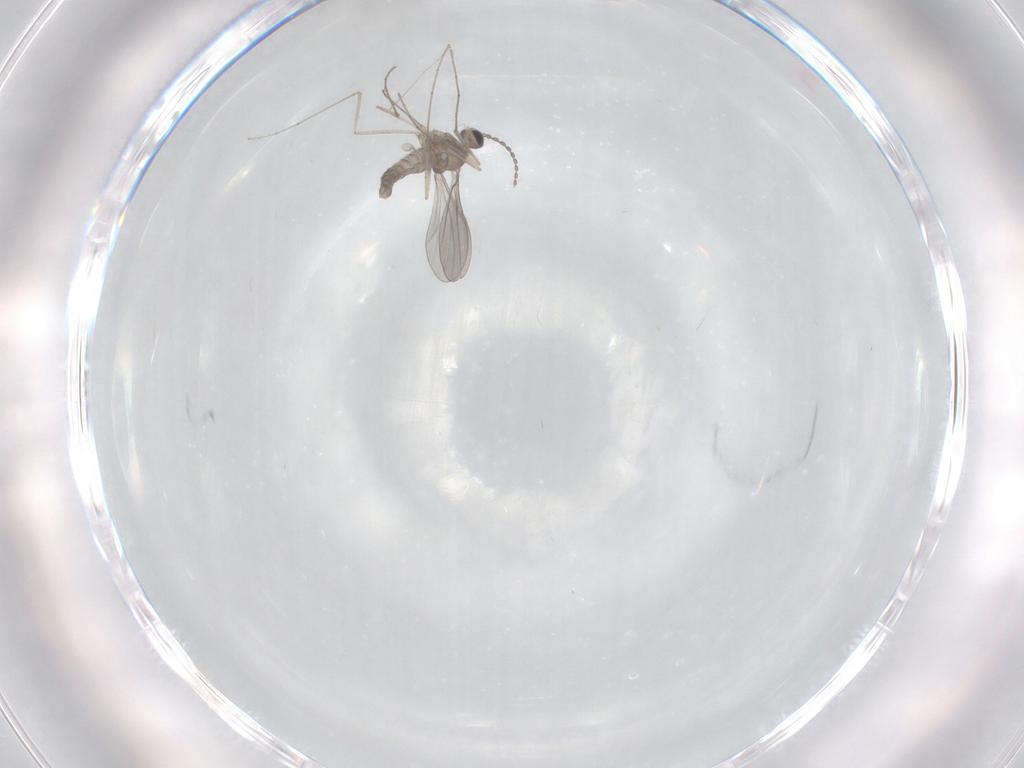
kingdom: Animalia
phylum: Arthropoda
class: Insecta
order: Diptera
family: Cecidomyiidae
